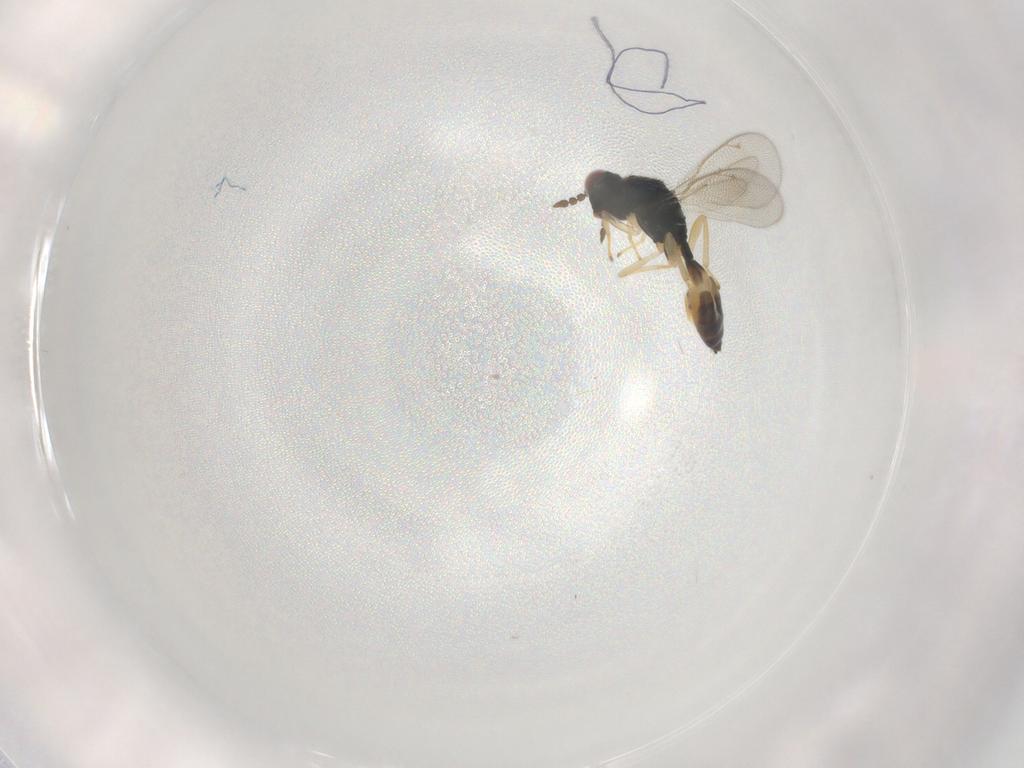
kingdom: Animalia
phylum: Arthropoda
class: Insecta
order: Hymenoptera
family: Eulophidae
